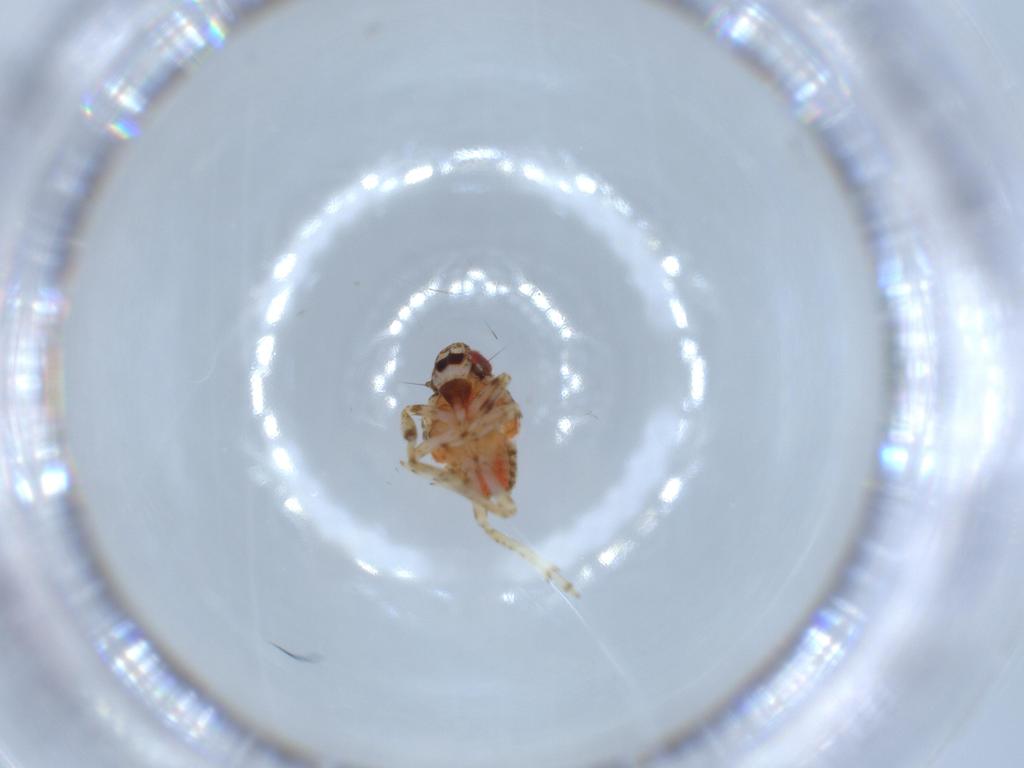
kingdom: Animalia
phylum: Arthropoda
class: Insecta
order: Hemiptera
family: Issidae
